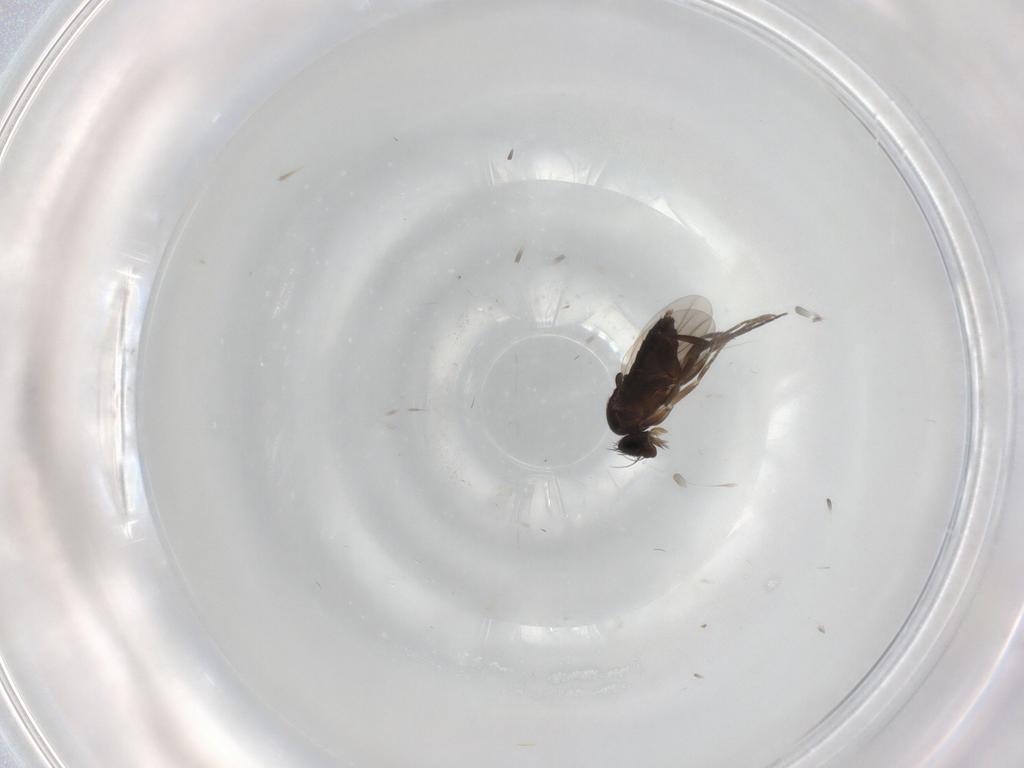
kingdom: Animalia
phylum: Arthropoda
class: Insecta
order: Diptera
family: Phoridae
